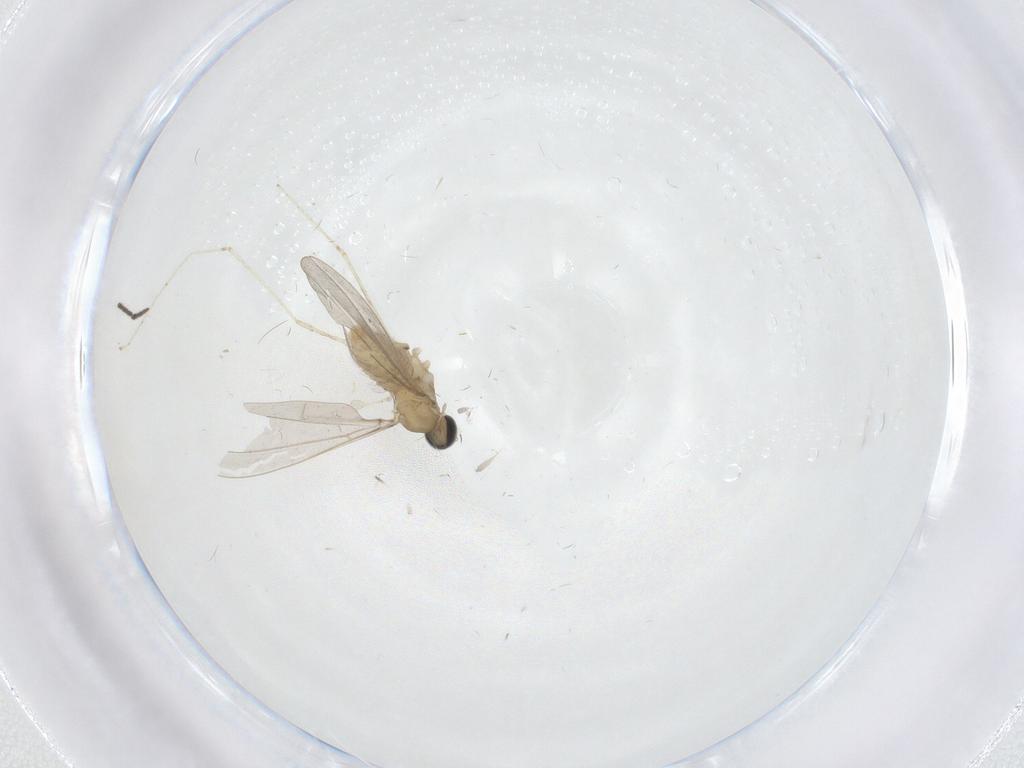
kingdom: Animalia
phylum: Arthropoda
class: Insecta
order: Diptera
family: Cecidomyiidae
